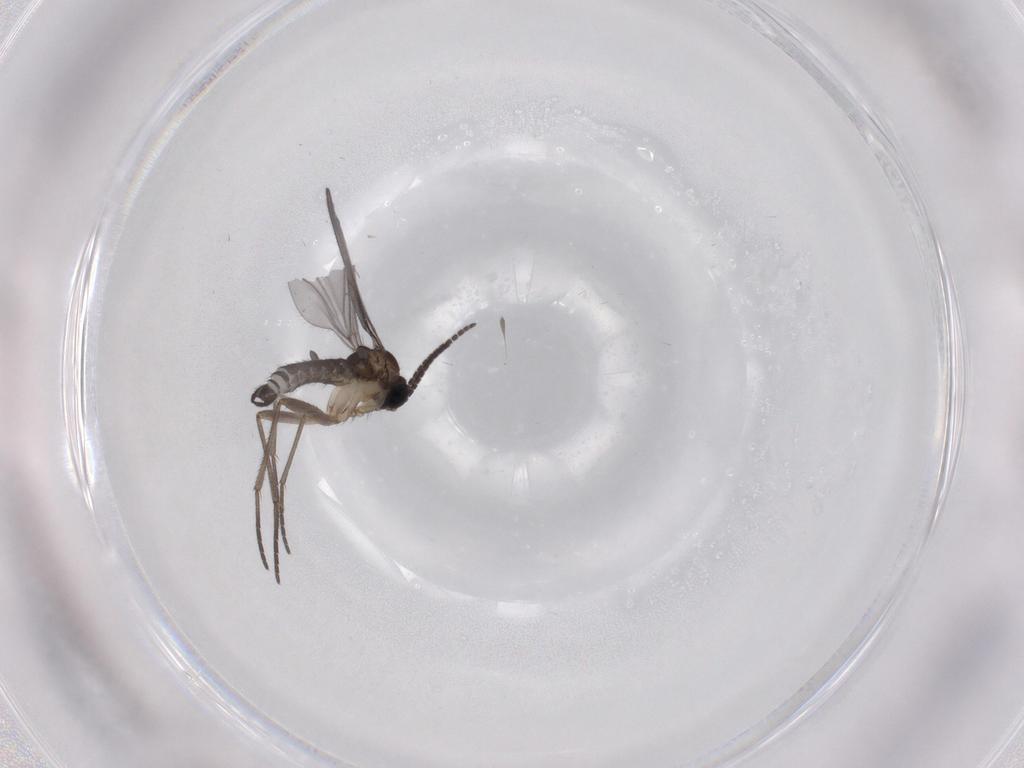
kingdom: Animalia
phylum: Arthropoda
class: Insecta
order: Diptera
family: Sciaridae
